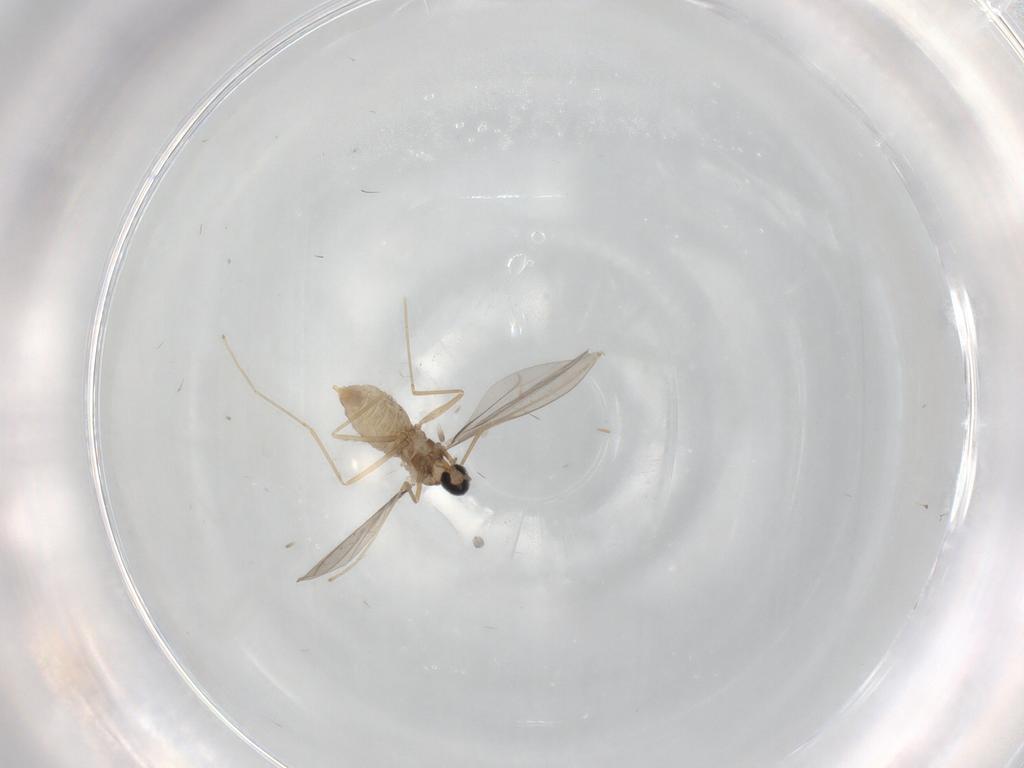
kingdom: Animalia
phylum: Arthropoda
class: Insecta
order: Diptera
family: Cecidomyiidae
